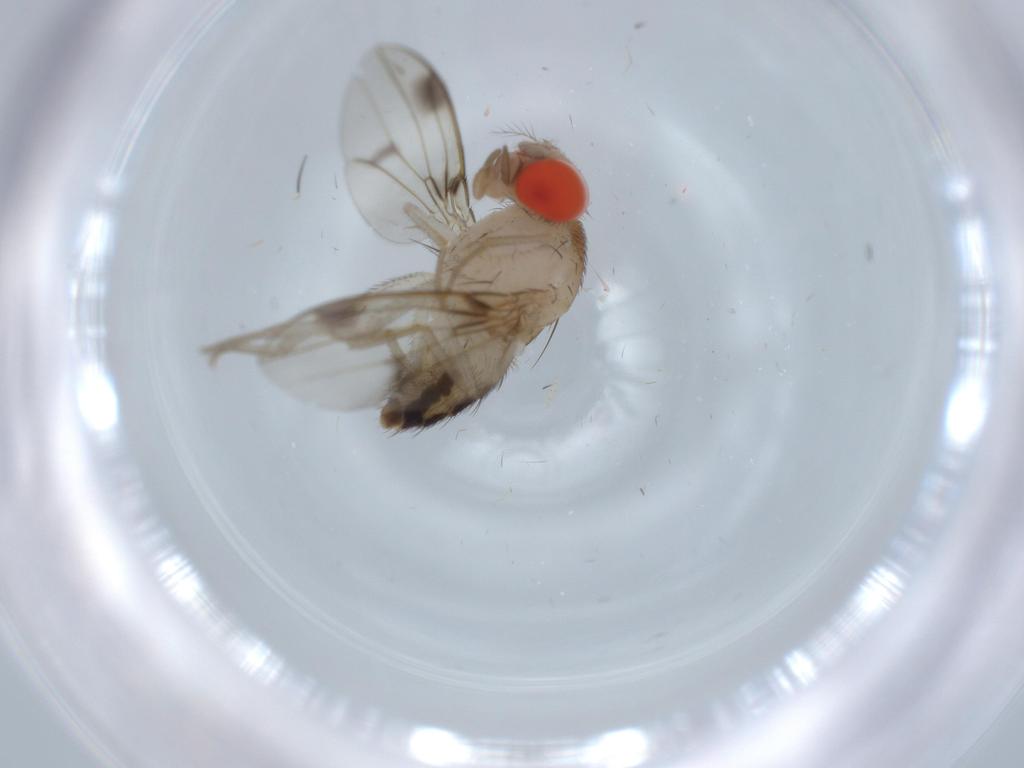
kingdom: Animalia
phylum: Arthropoda
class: Insecta
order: Diptera
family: Drosophilidae
